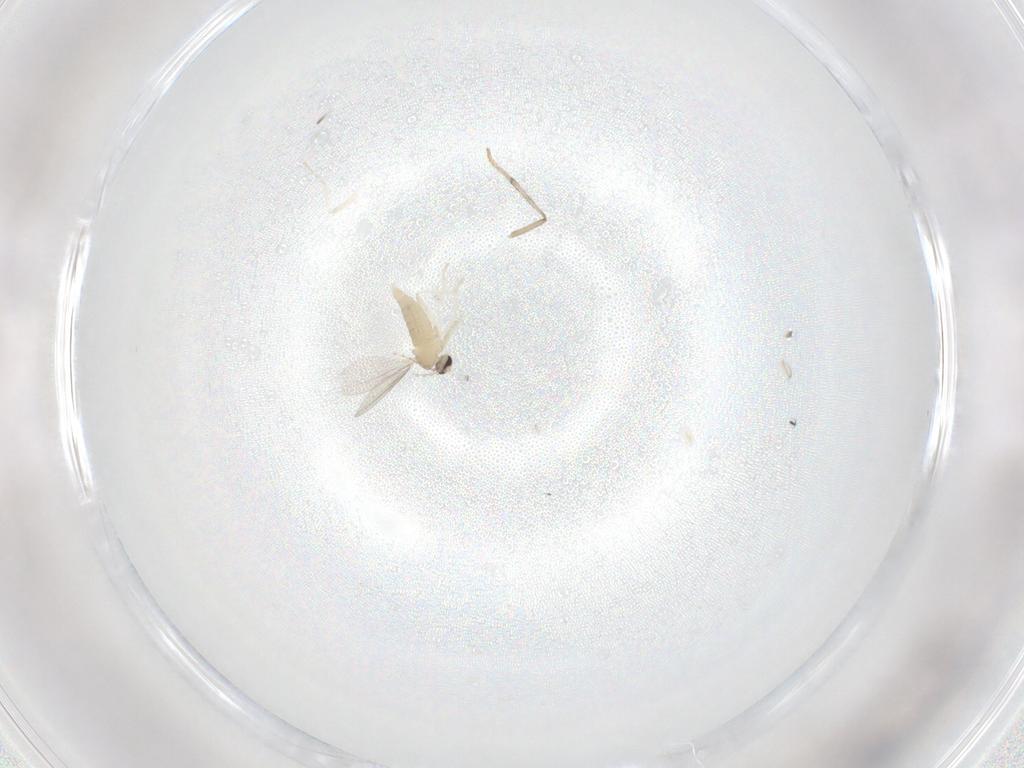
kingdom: Animalia
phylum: Arthropoda
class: Insecta
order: Diptera
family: Cecidomyiidae
